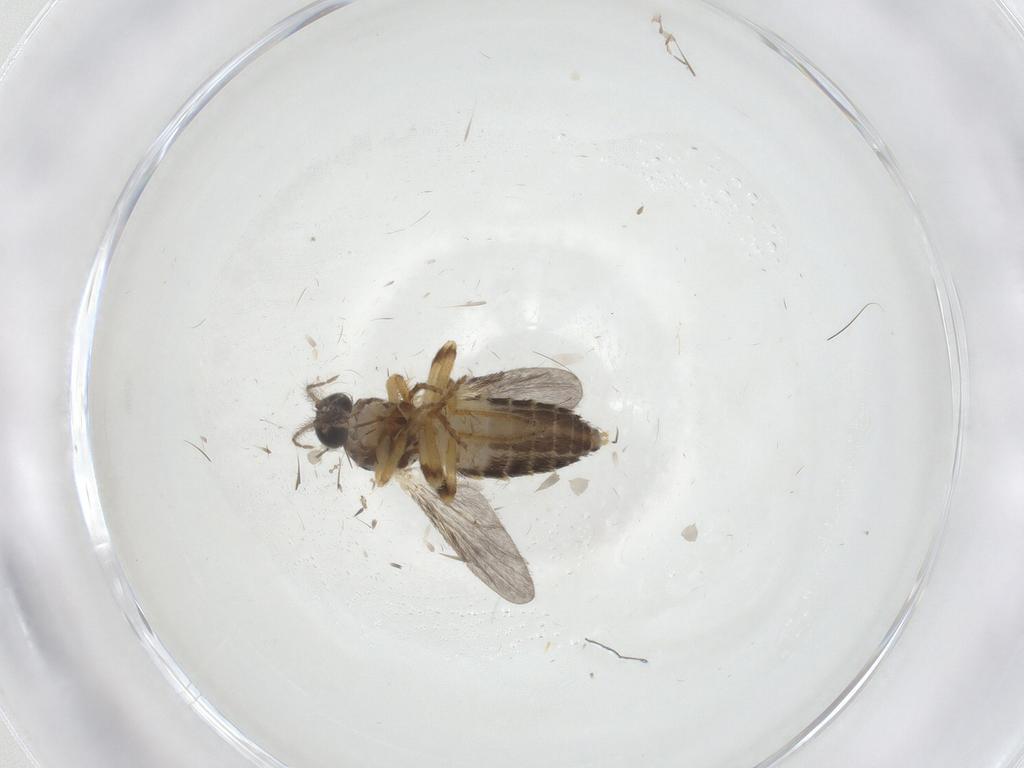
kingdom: Animalia
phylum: Arthropoda
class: Insecta
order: Diptera
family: Ceratopogonidae
